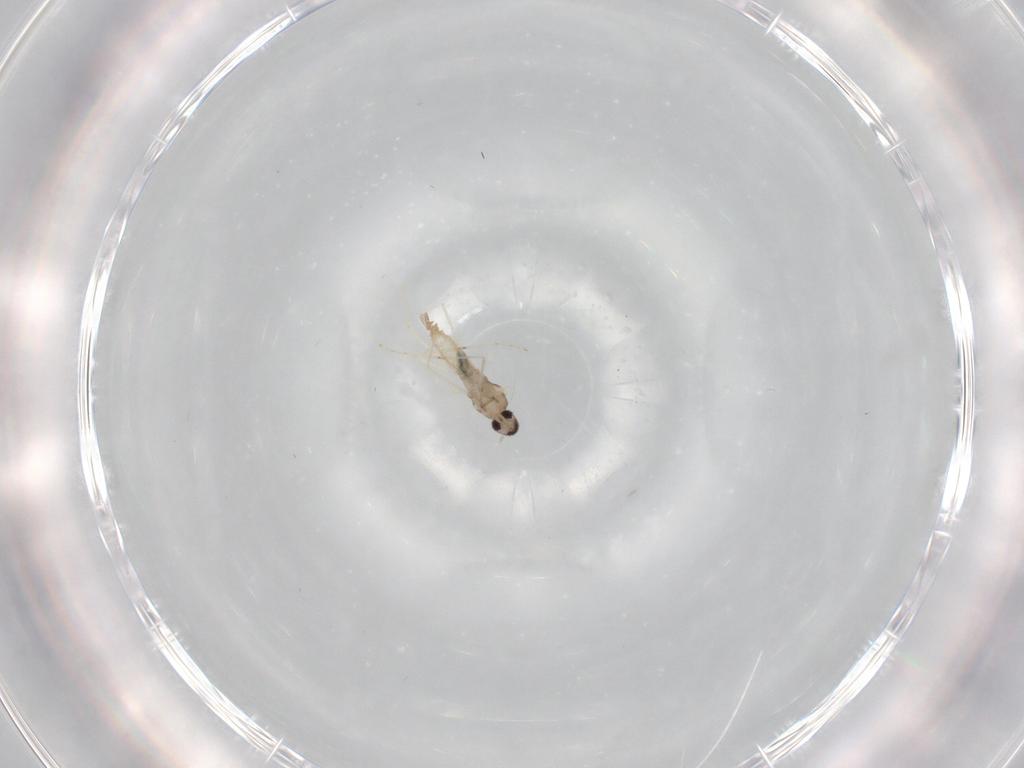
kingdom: Animalia
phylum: Arthropoda
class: Insecta
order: Diptera
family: Cecidomyiidae
